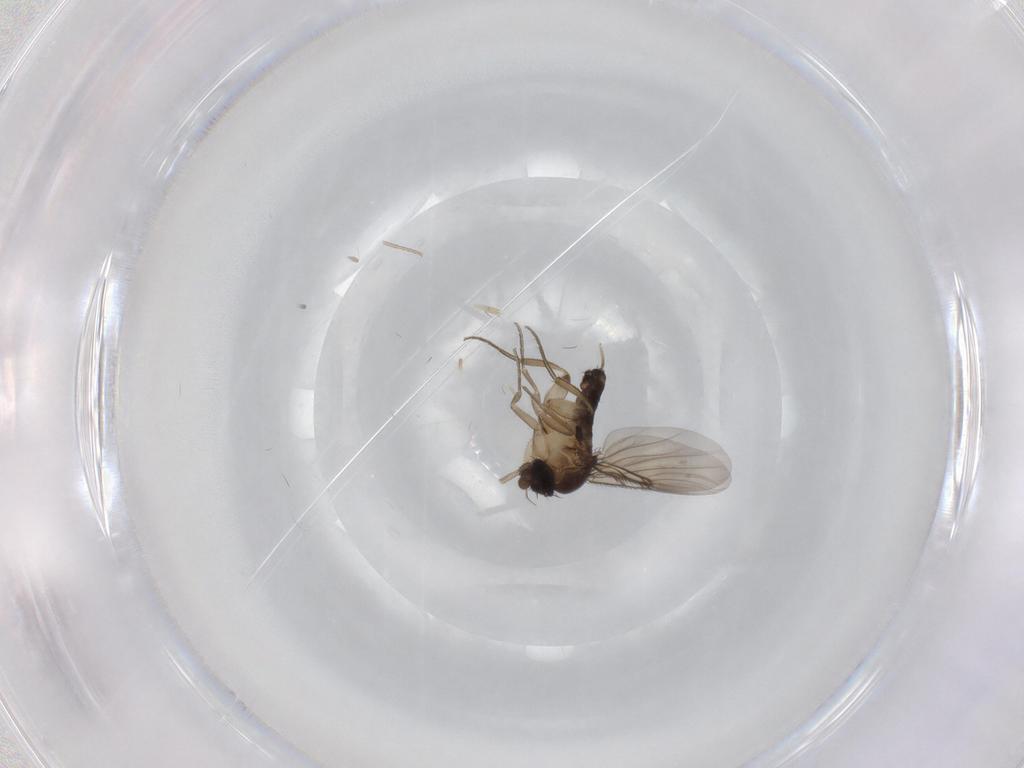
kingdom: Animalia
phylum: Arthropoda
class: Insecta
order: Diptera
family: Phoridae
